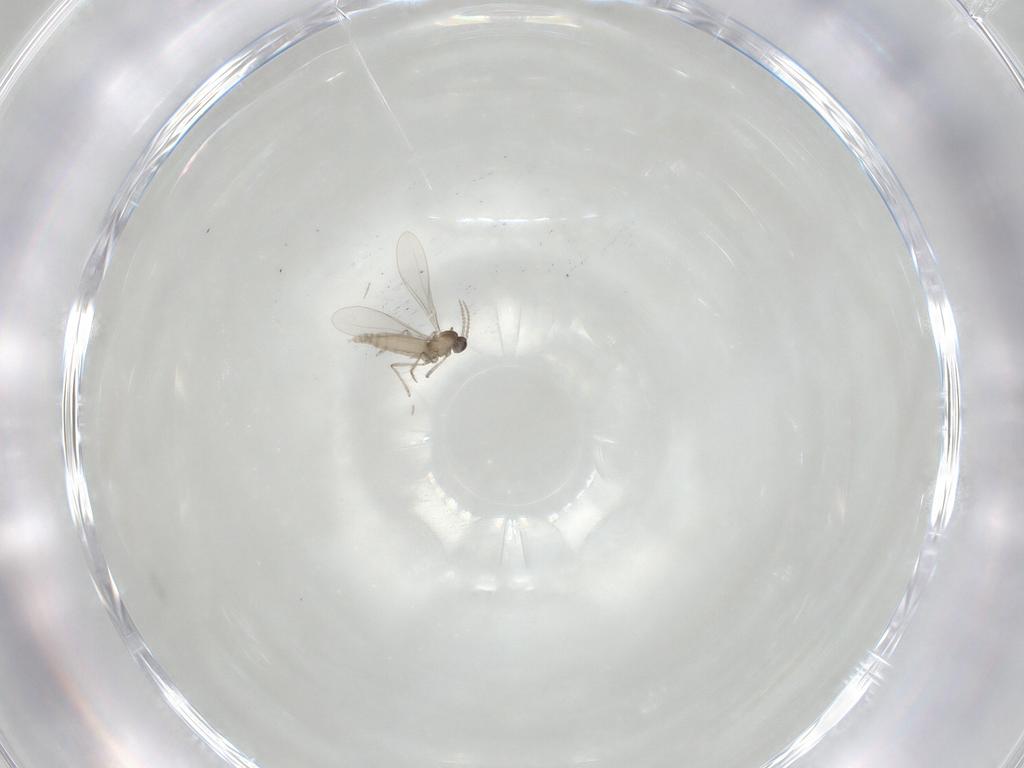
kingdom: Animalia
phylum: Arthropoda
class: Insecta
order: Diptera
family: Cecidomyiidae
